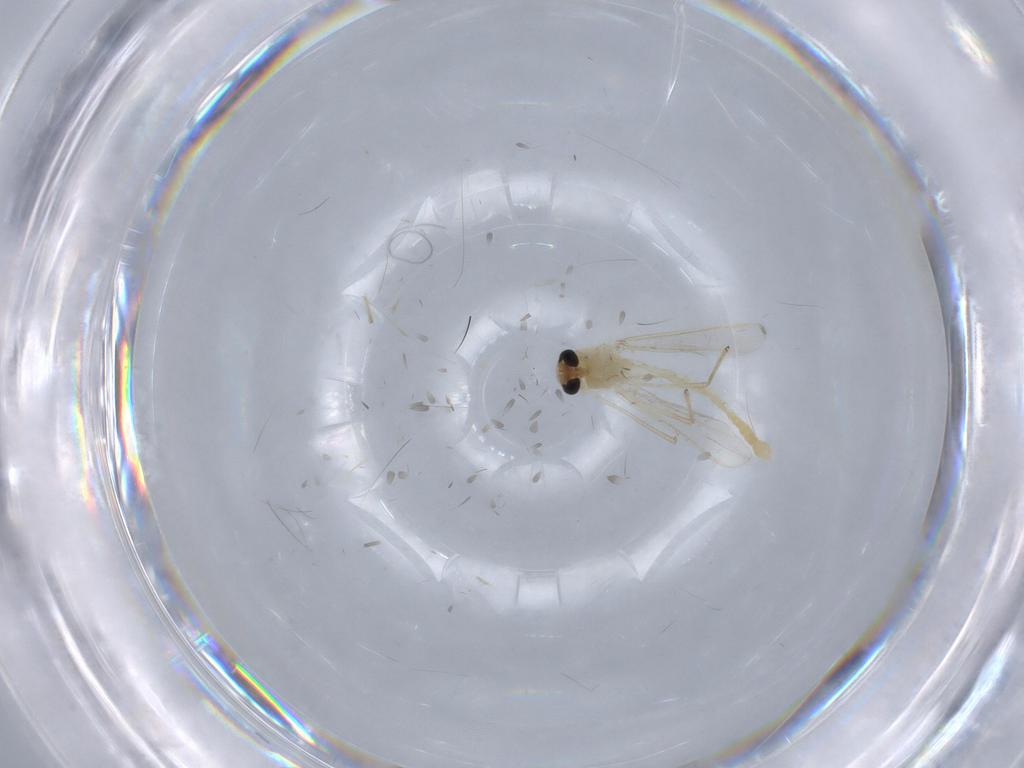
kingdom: Animalia
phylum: Arthropoda
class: Insecta
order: Diptera
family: Chironomidae
